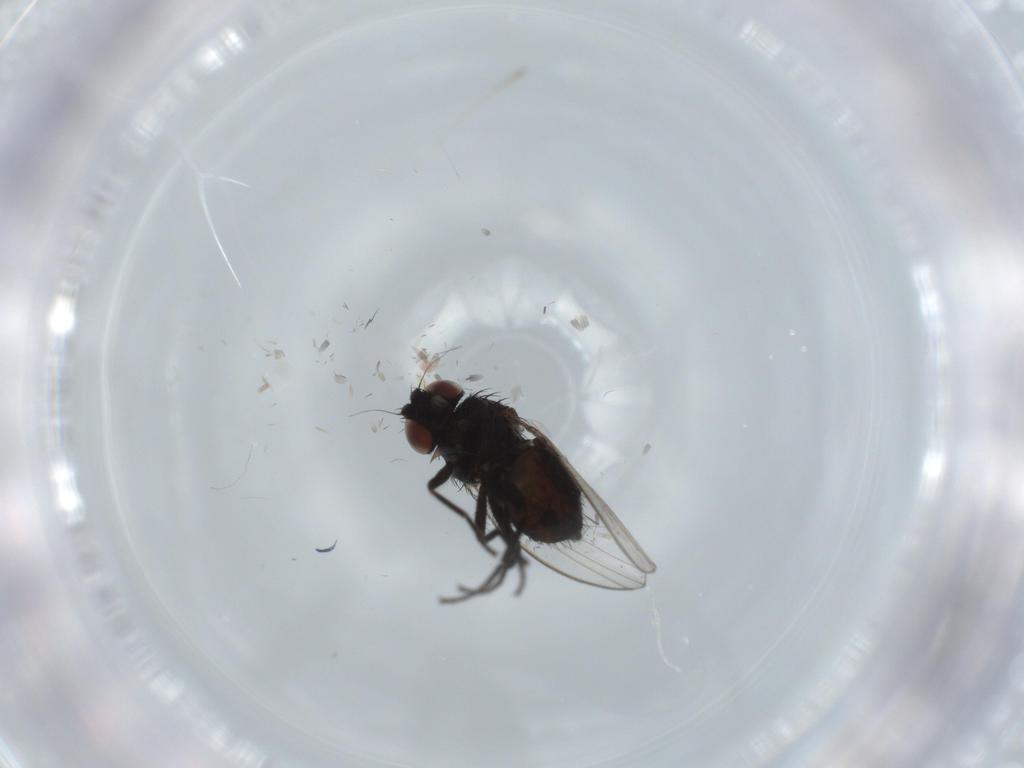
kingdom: Animalia
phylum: Arthropoda
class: Insecta
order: Diptera
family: Milichiidae
